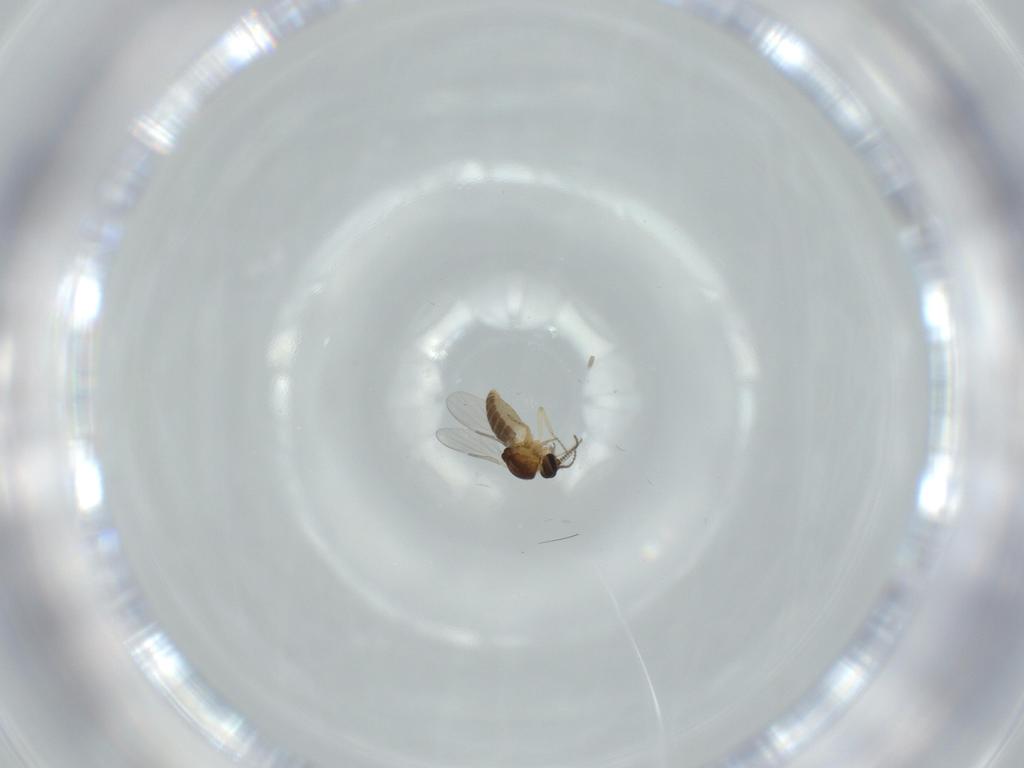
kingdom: Animalia
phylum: Arthropoda
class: Insecta
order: Diptera
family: Ceratopogonidae
